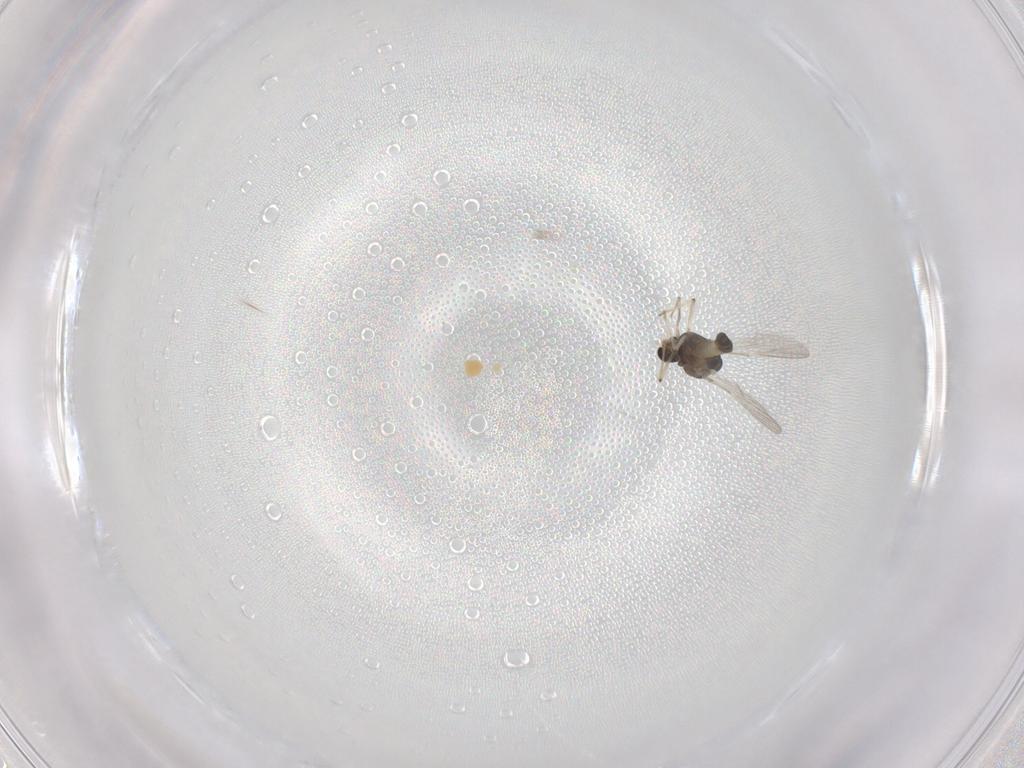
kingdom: Animalia
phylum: Arthropoda
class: Insecta
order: Diptera
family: Chironomidae
